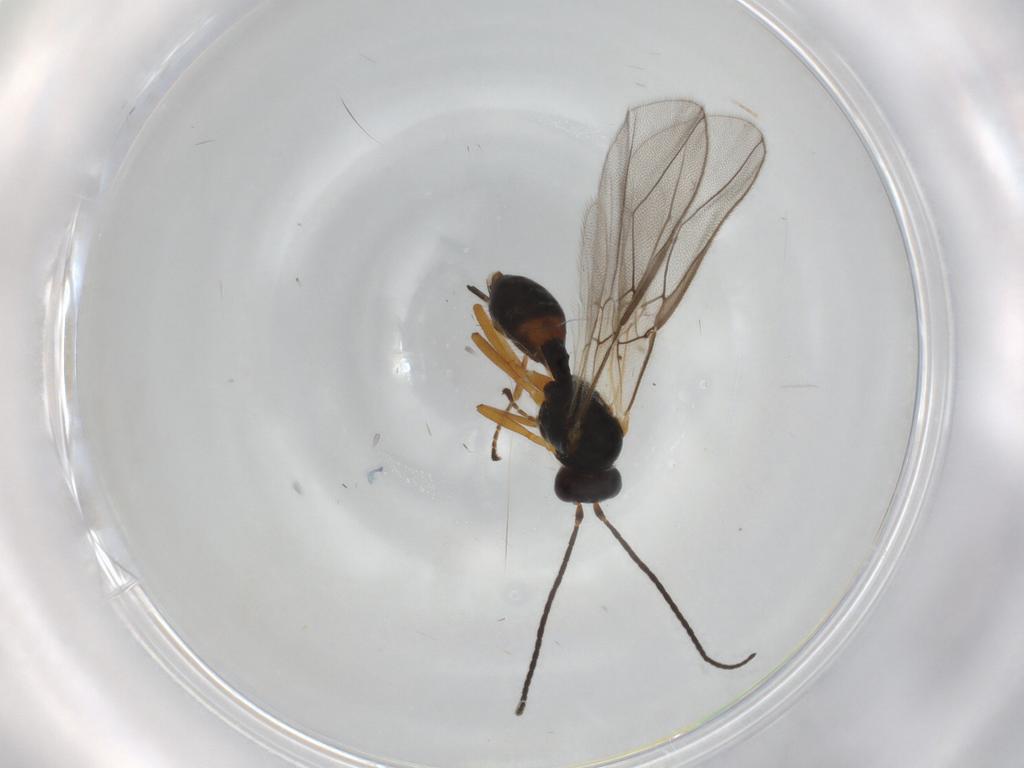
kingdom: Animalia
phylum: Arthropoda
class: Insecta
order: Hymenoptera
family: Braconidae
